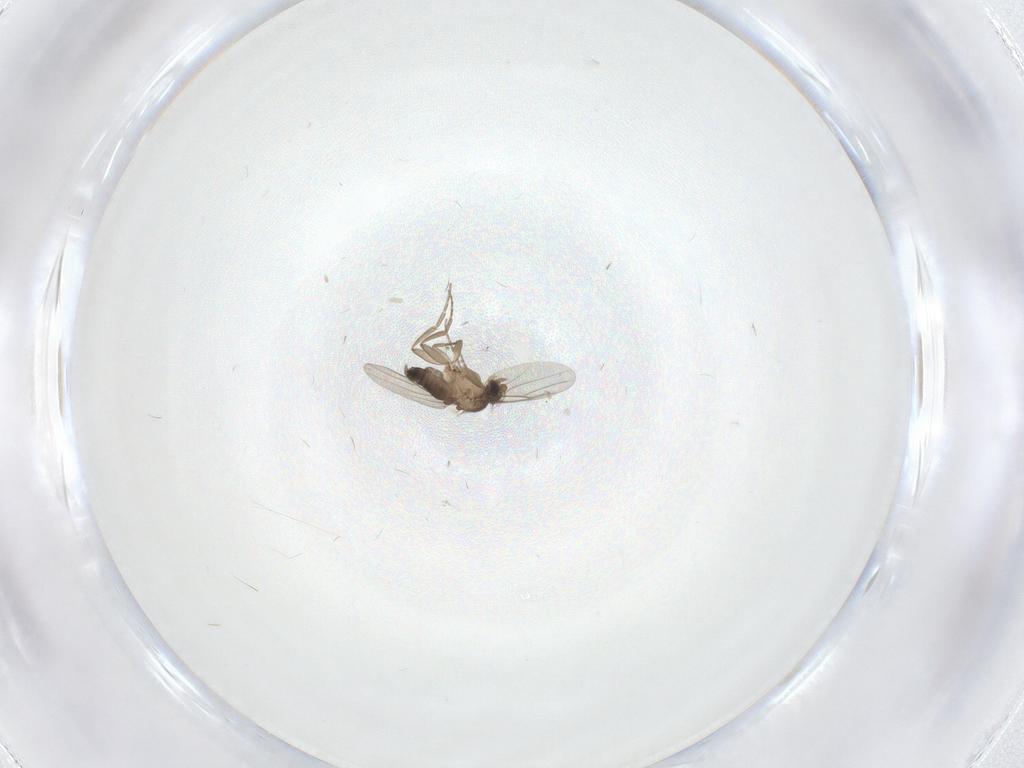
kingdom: Animalia
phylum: Arthropoda
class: Insecta
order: Diptera
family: Phoridae
